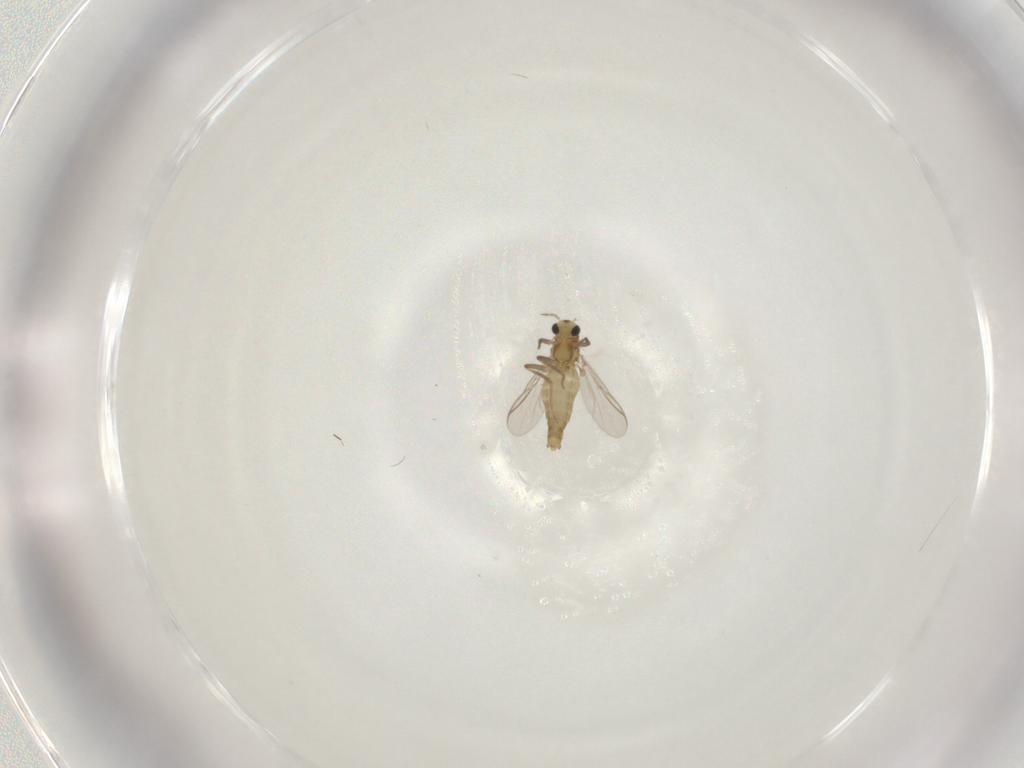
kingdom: Animalia
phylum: Arthropoda
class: Insecta
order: Diptera
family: Chironomidae
